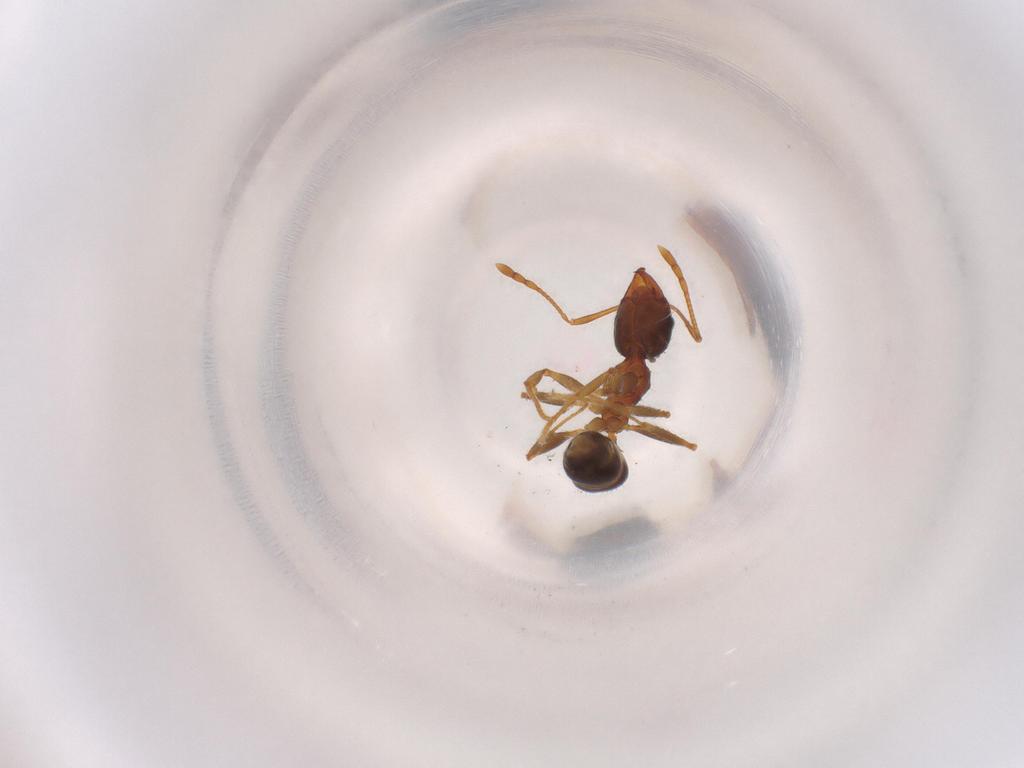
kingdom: Animalia
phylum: Arthropoda
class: Insecta
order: Hymenoptera
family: Formicidae
